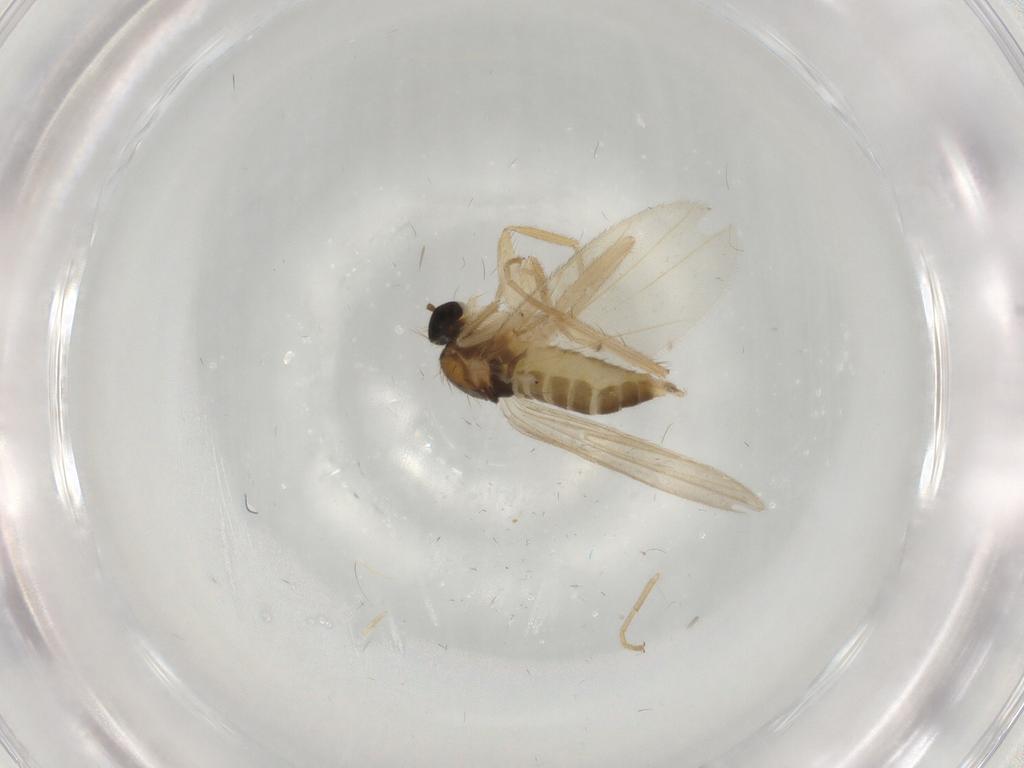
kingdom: Animalia
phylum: Arthropoda
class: Insecta
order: Diptera
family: Hybotidae
